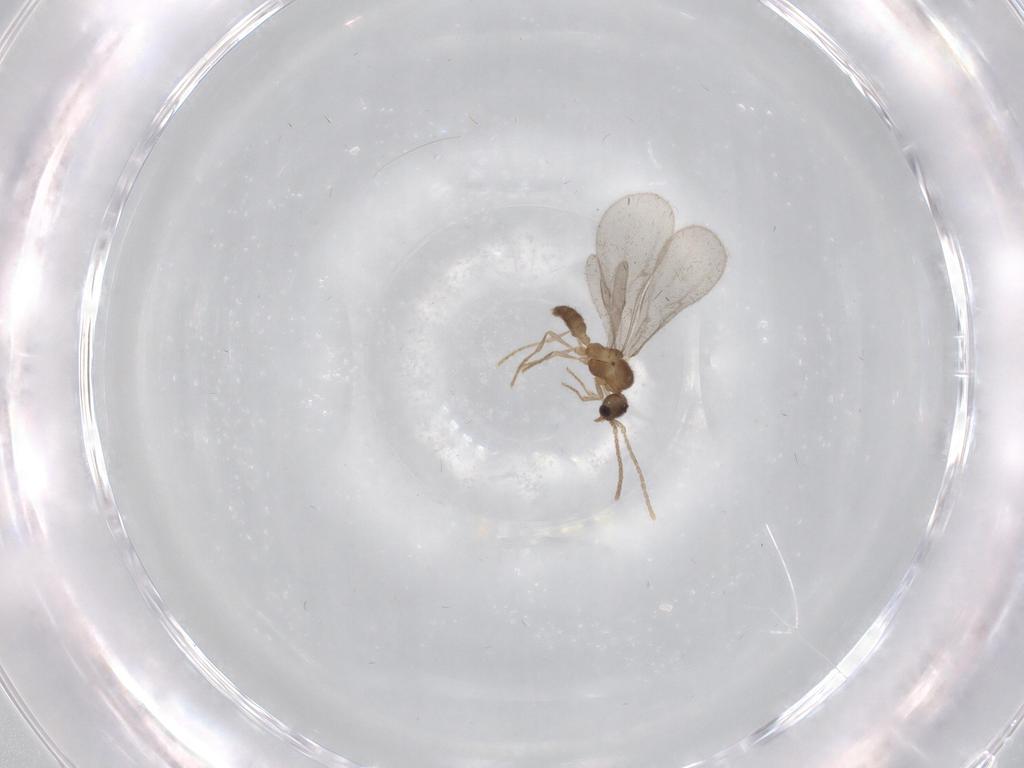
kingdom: Animalia
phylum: Arthropoda
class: Insecta
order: Hymenoptera
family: Formicidae
